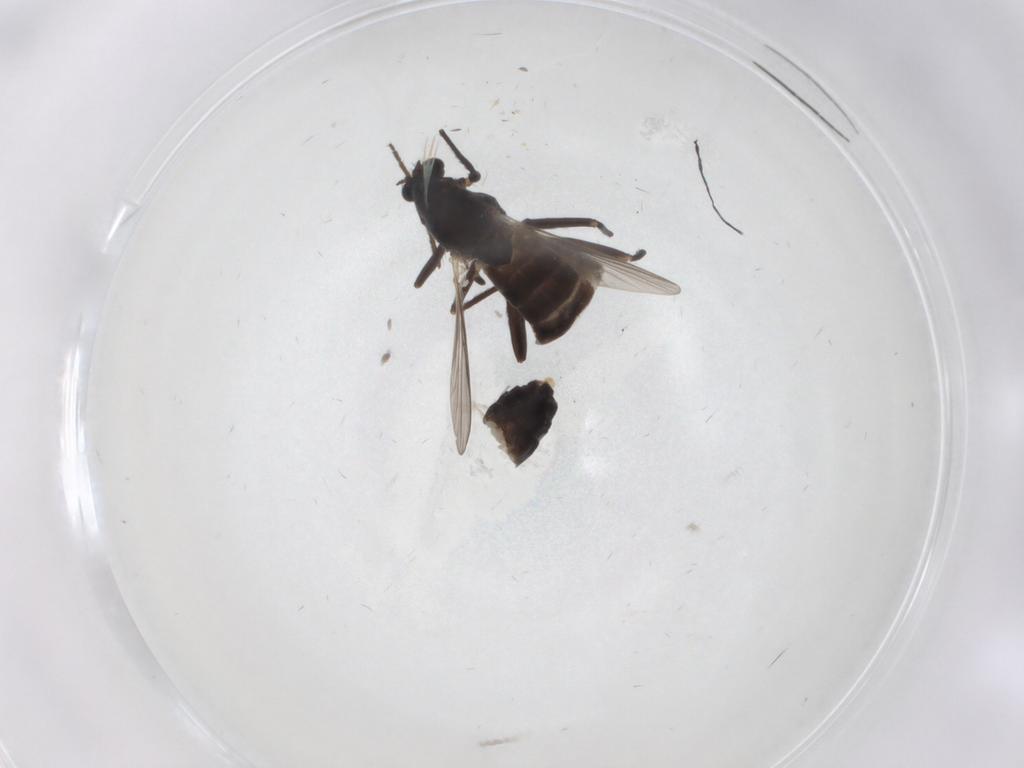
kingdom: Animalia
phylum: Arthropoda
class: Insecta
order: Diptera
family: Chironomidae
